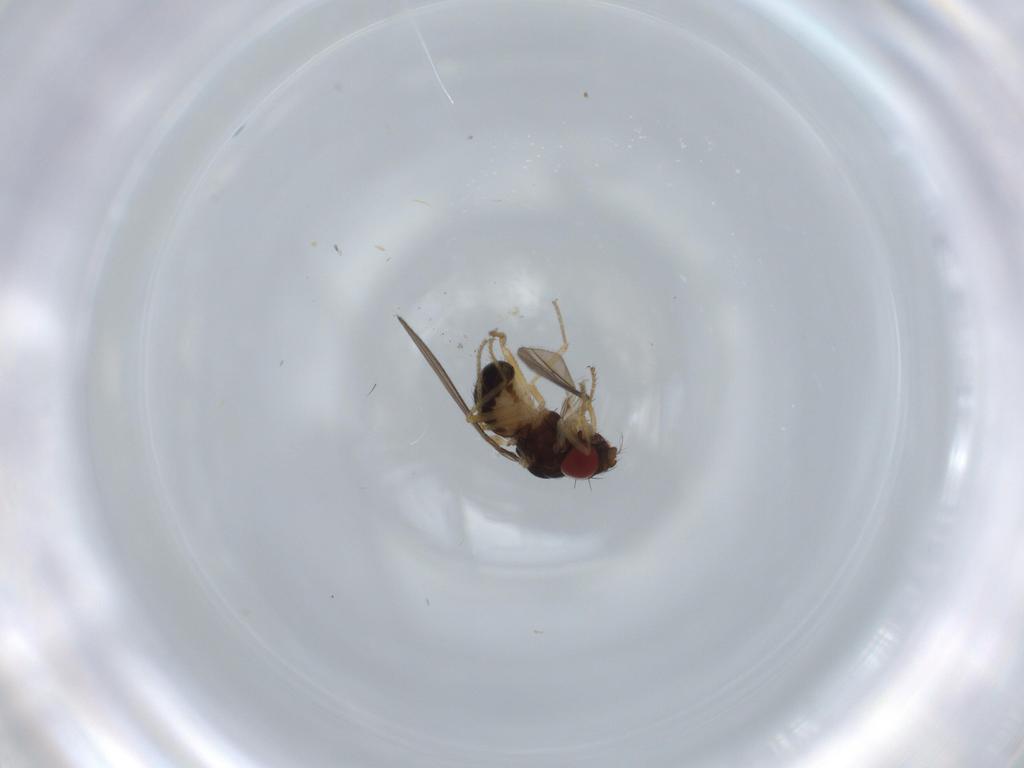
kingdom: Animalia
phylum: Arthropoda
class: Insecta
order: Diptera
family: Drosophilidae
